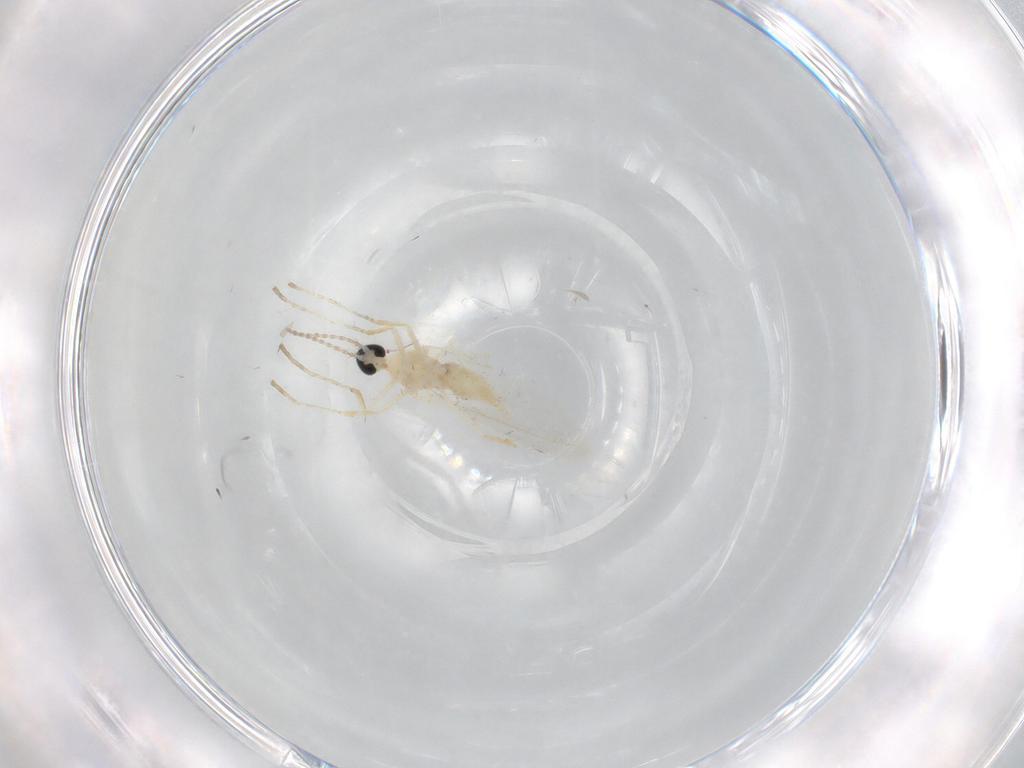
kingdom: Animalia
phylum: Arthropoda
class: Insecta
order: Diptera
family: Cecidomyiidae
